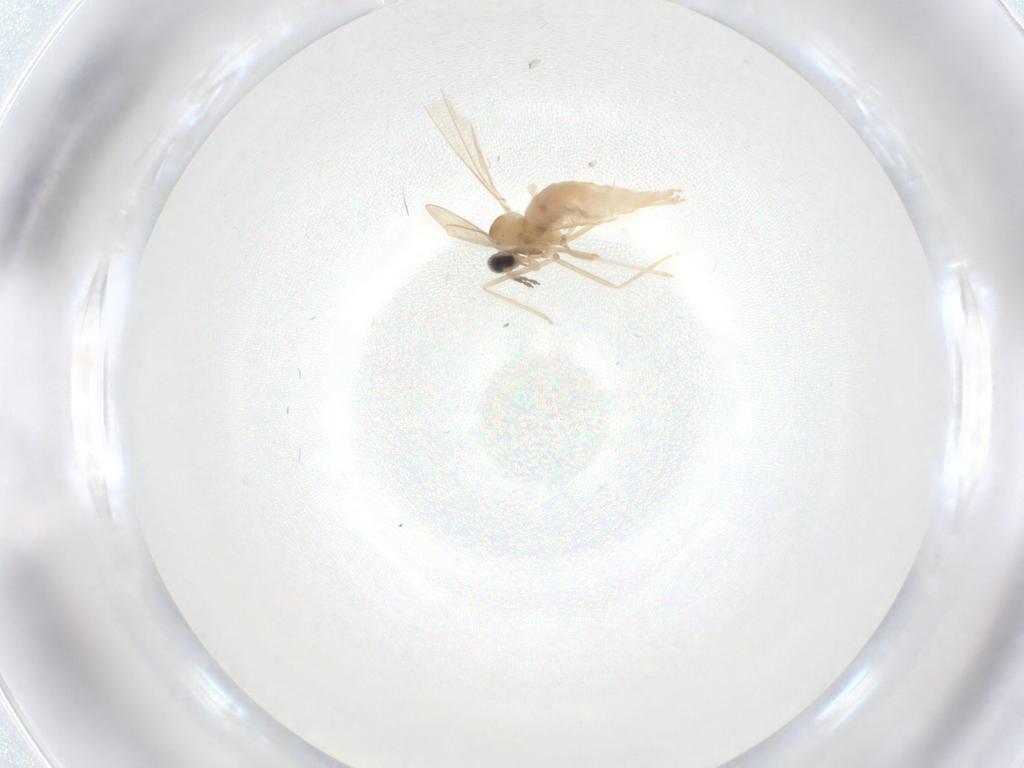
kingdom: Animalia
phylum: Arthropoda
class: Insecta
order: Diptera
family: Cecidomyiidae
